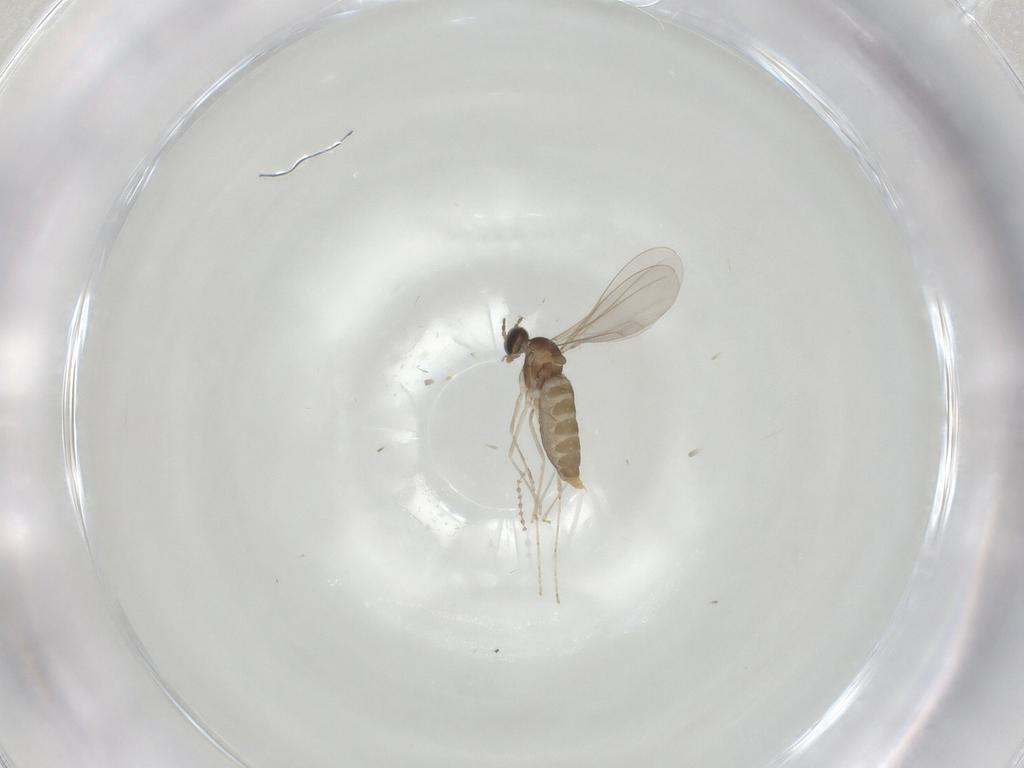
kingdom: Animalia
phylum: Arthropoda
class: Insecta
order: Diptera
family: Cecidomyiidae
